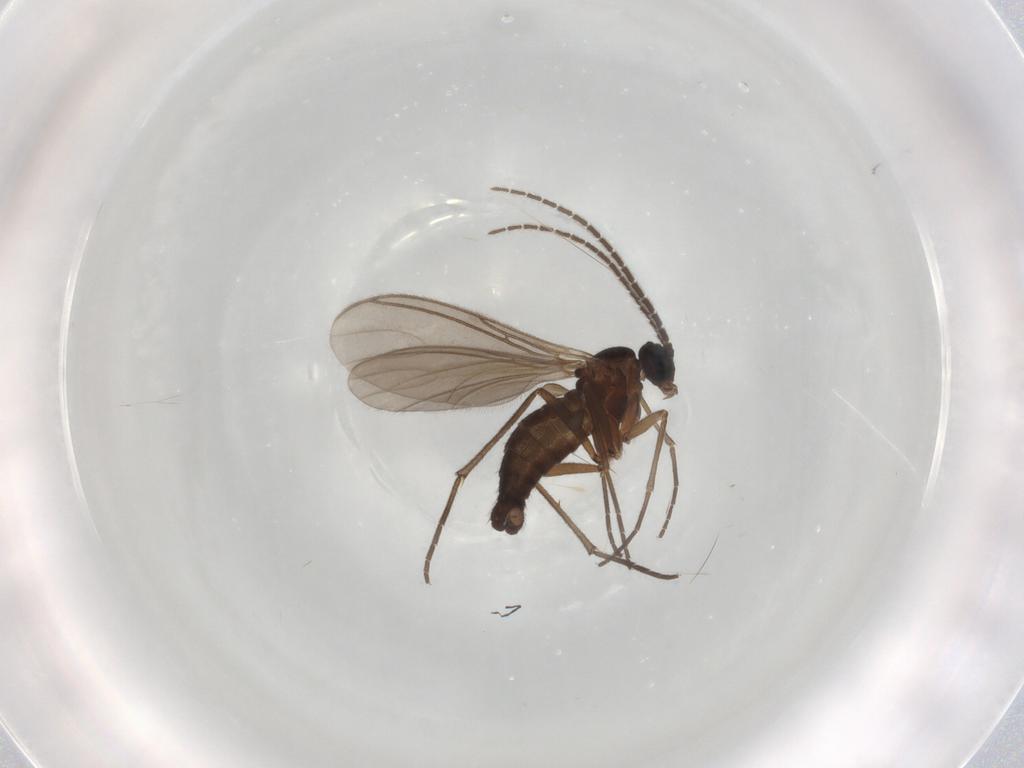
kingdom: Animalia
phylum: Arthropoda
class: Insecta
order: Diptera
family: Sciaridae
